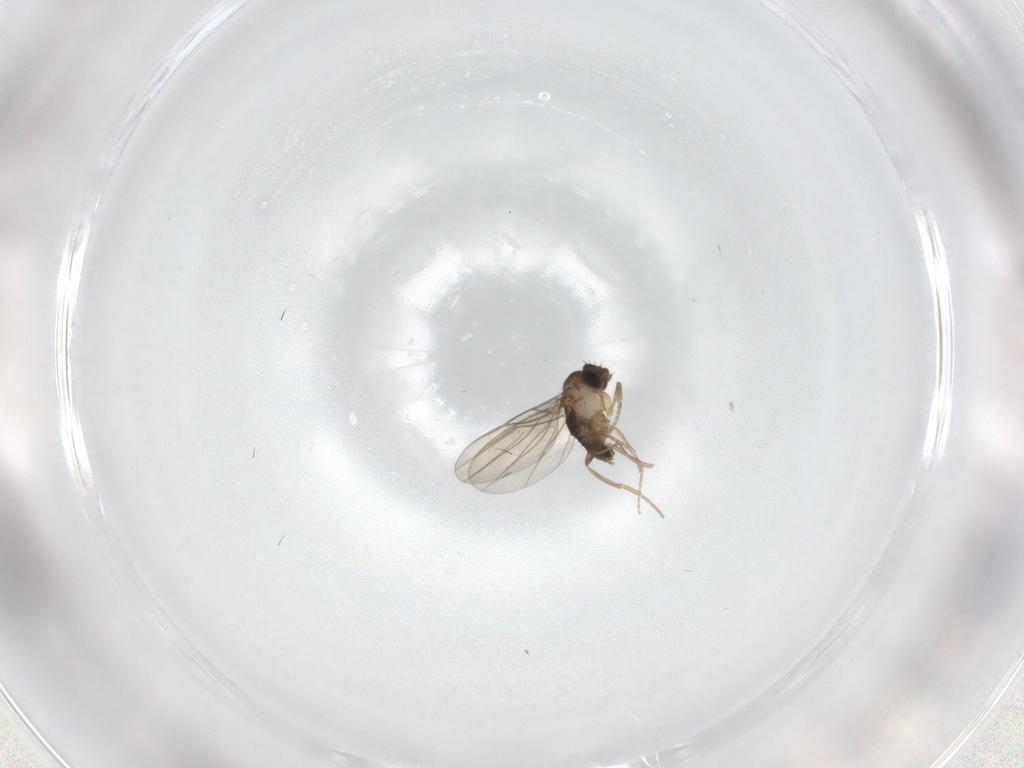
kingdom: Animalia
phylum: Arthropoda
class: Insecta
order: Diptera
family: Phoridae
